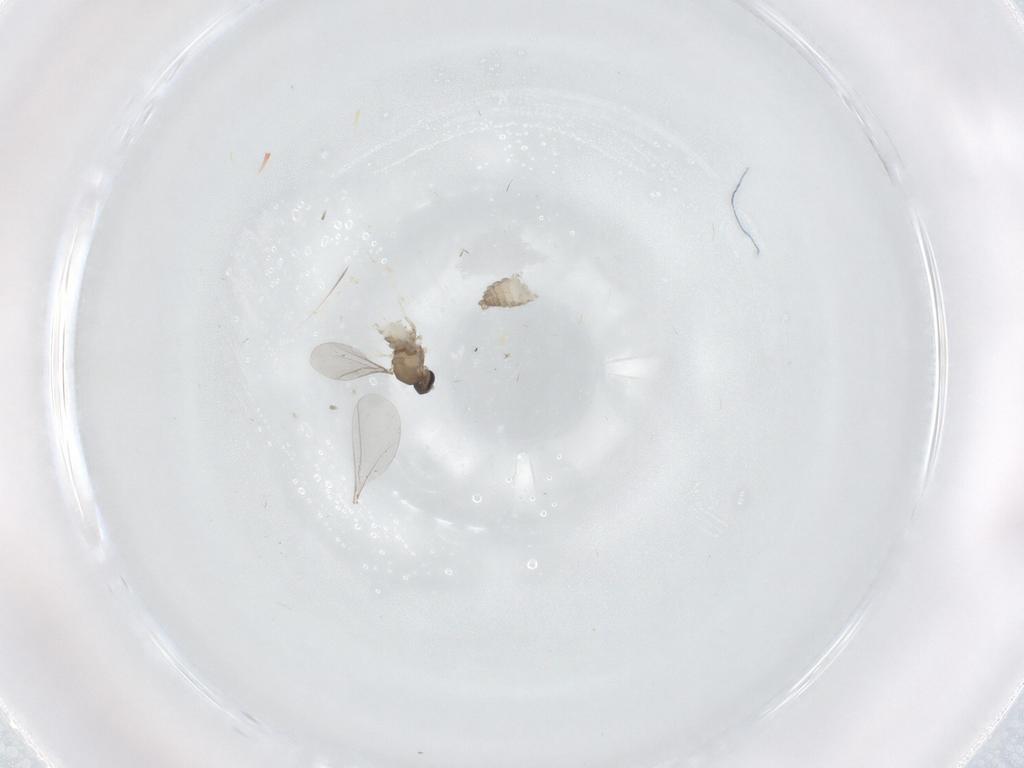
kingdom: Animalia
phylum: Arthropoda
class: Insecta
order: Diptera
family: Cecidomyiidae
